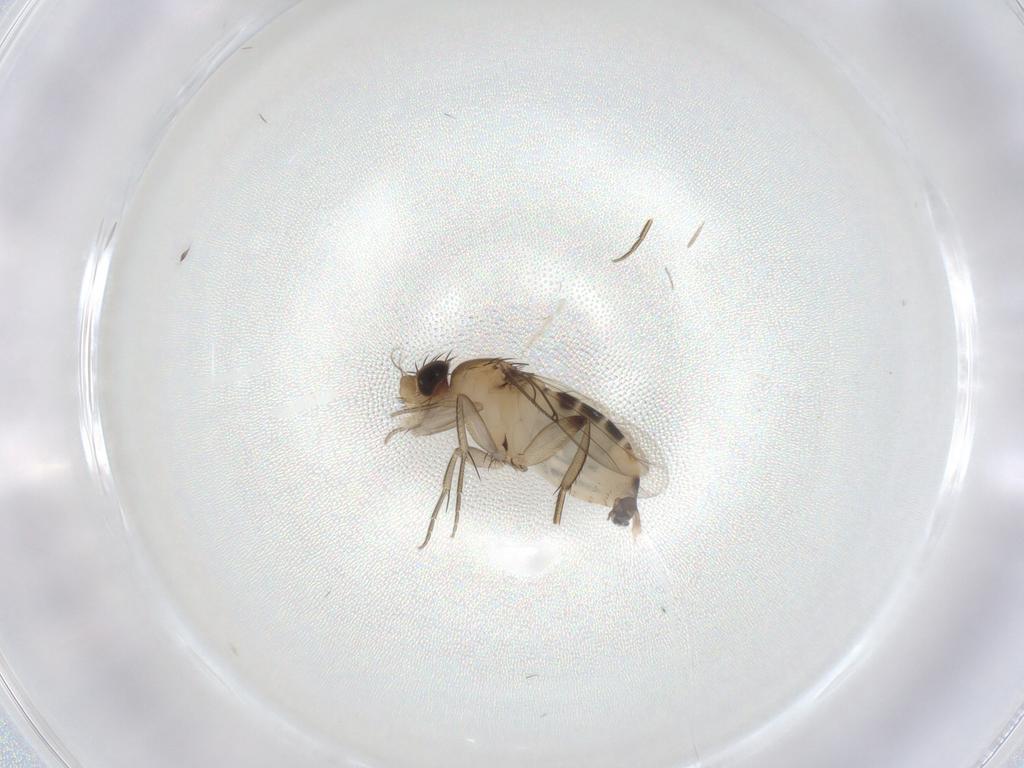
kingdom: Animalia
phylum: Arthropoda
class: Insecta
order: Diptera
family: Phoridae
